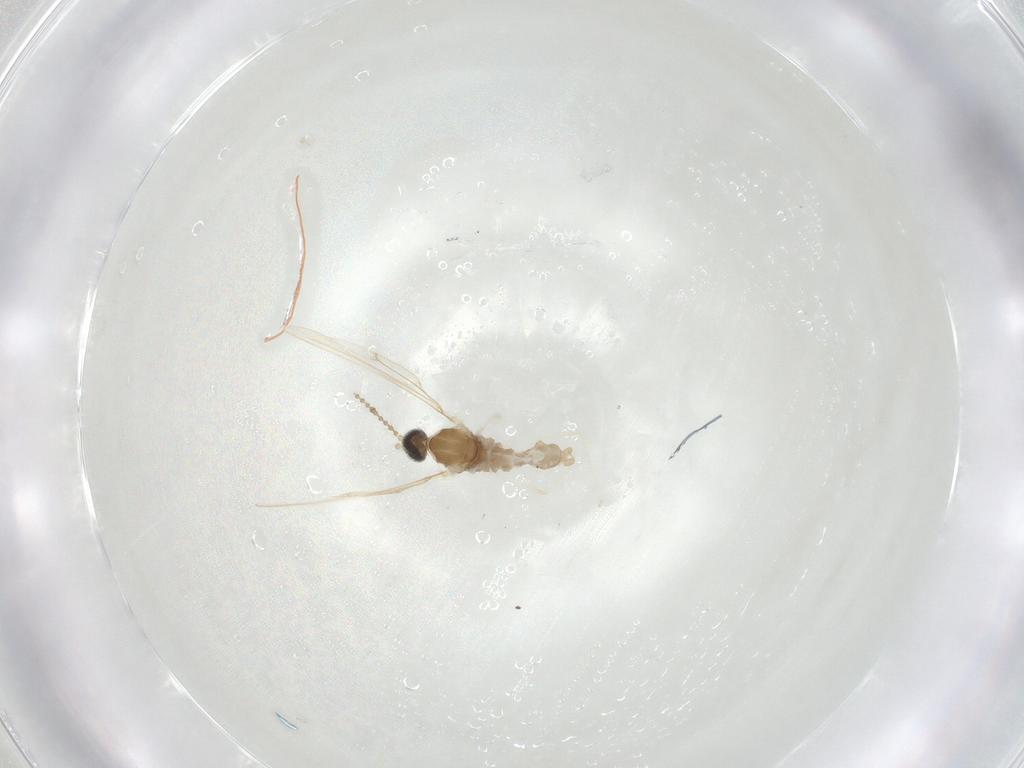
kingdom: Animalia
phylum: Arthropoda
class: Insecta
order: Diptera
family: Cecidomyiidae
